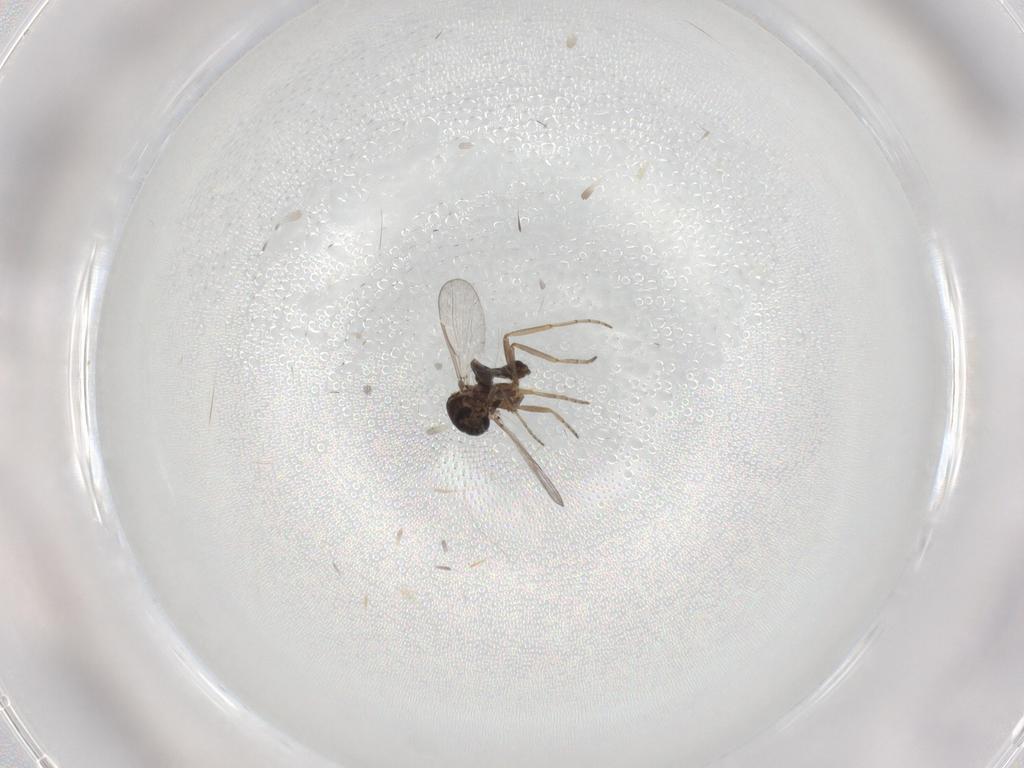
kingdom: Animalia
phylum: Arthropoda
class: Insecta
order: Diptera
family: Ceratopogonidae
